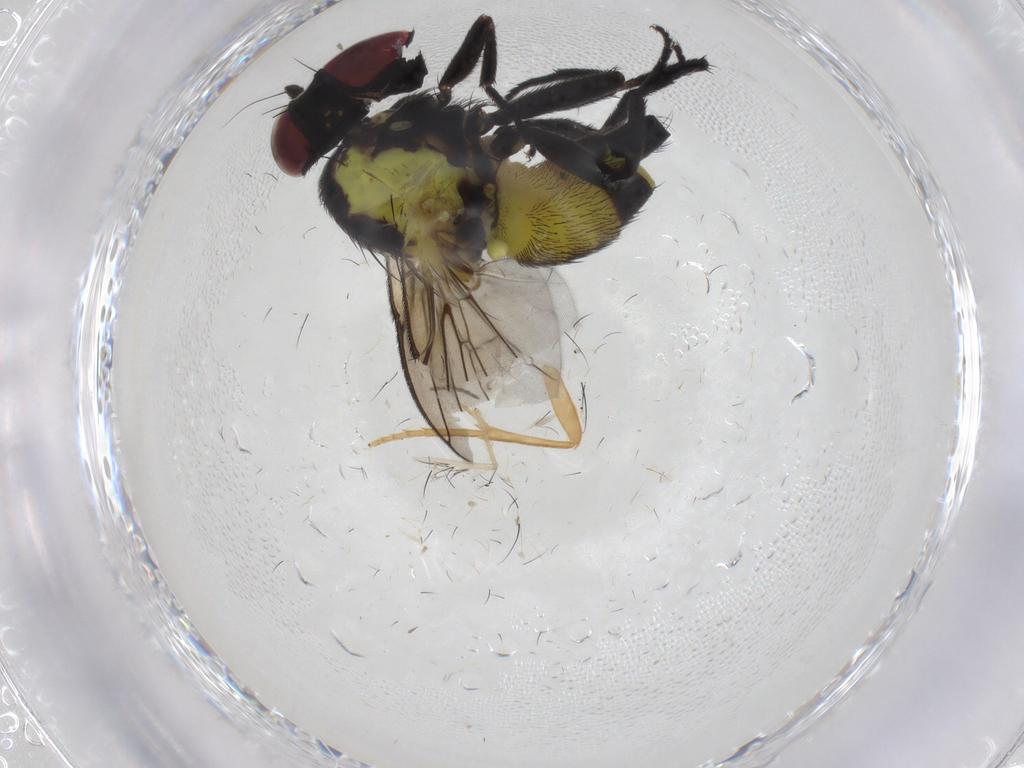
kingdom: Animalia
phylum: Arthropoda
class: Insecta
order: Diptera
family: Agromyzidae
